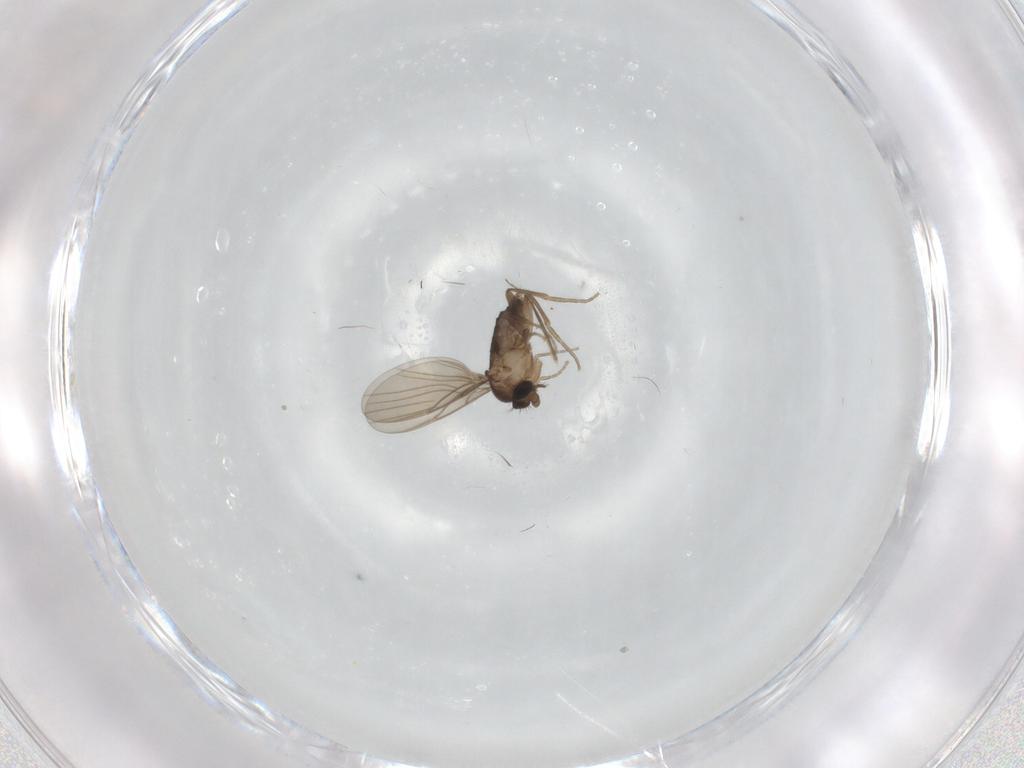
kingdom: Animalia
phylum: Arthropoda
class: Insecta
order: Diptera
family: Phoridae
